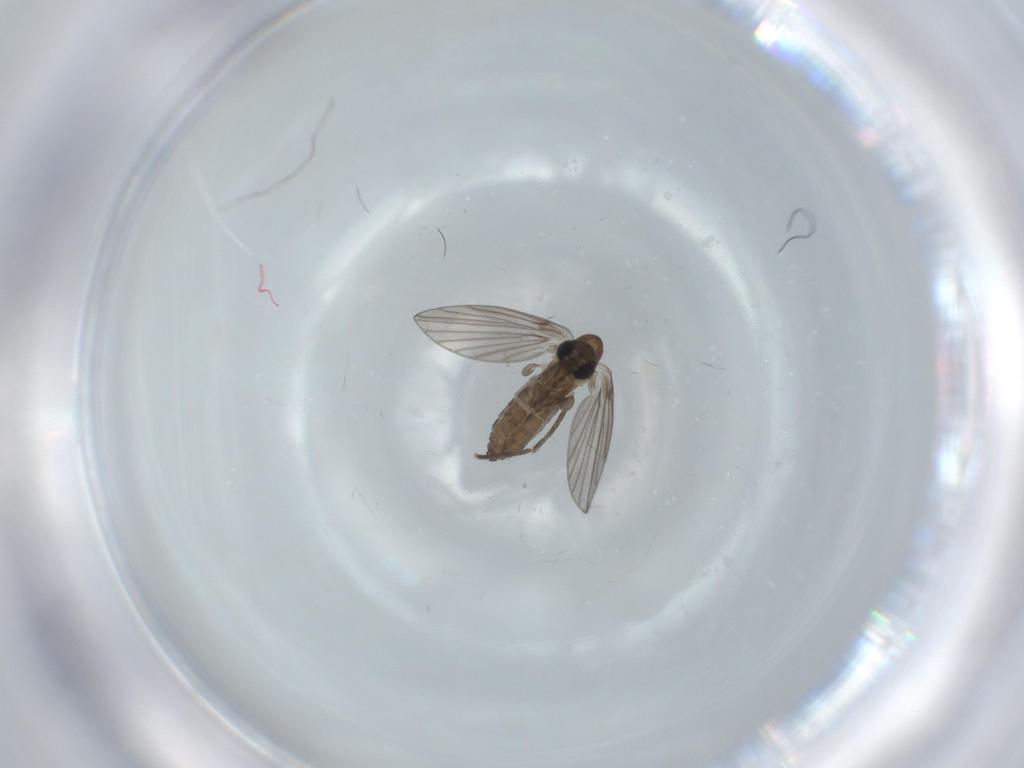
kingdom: Animalia
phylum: Arthropoda
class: Insecta
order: Diptera
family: Psychodidae
